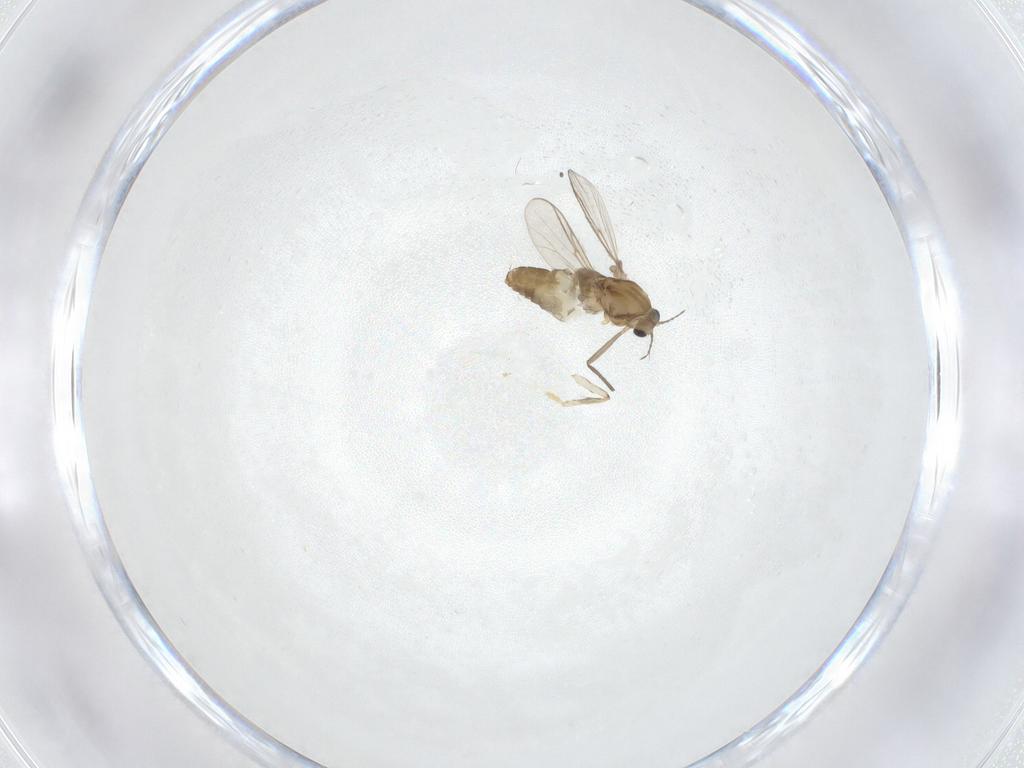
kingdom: Animalia
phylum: Arthropoda
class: Insecta
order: Diptera
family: Chironomidae
